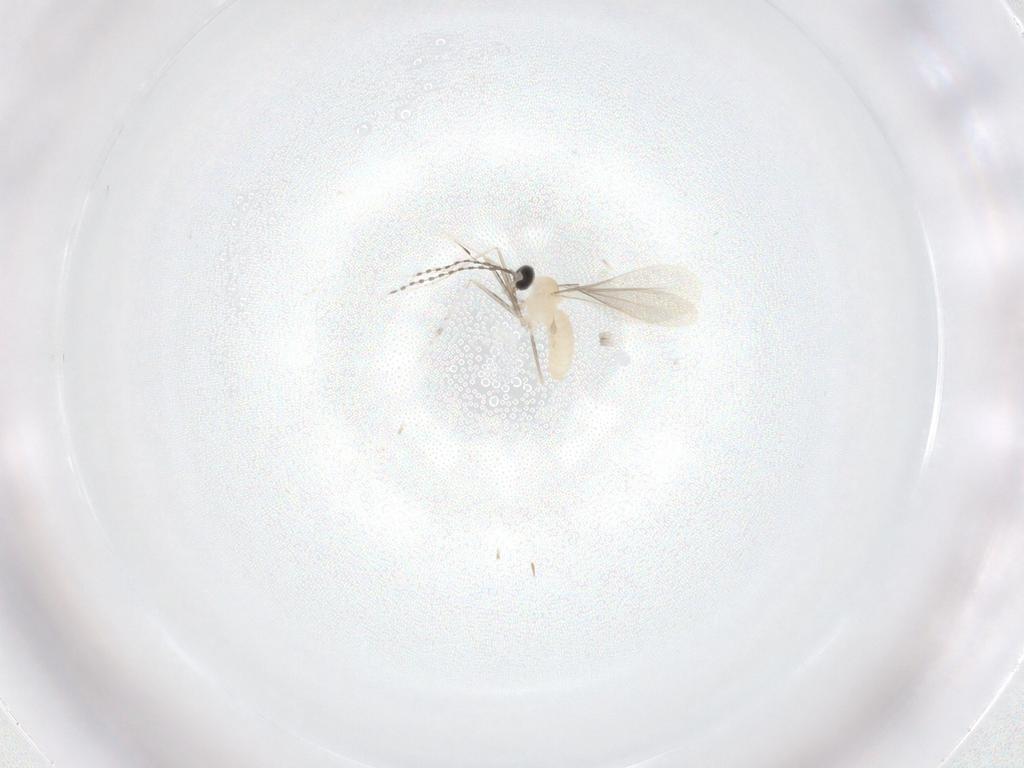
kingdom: Animalia
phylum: Arthropoda
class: Insecta
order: Diptera
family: Cecidomyiidae
